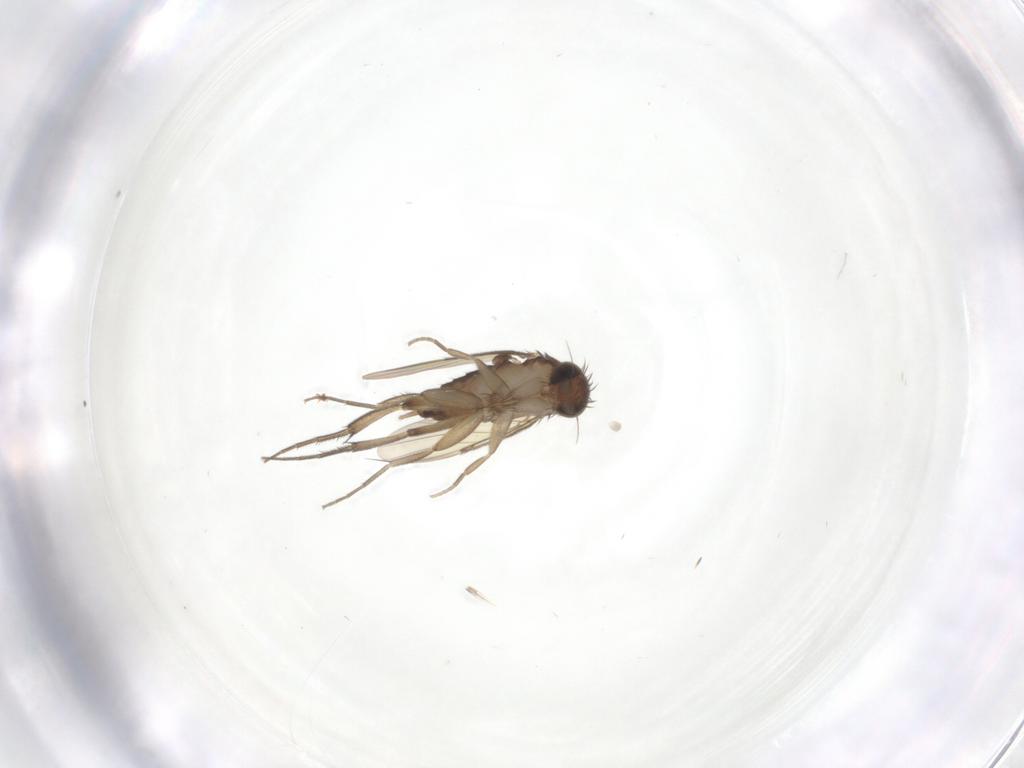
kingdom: Animalia
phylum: Arthropoda
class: Insecta
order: Diptera
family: Phoridae
